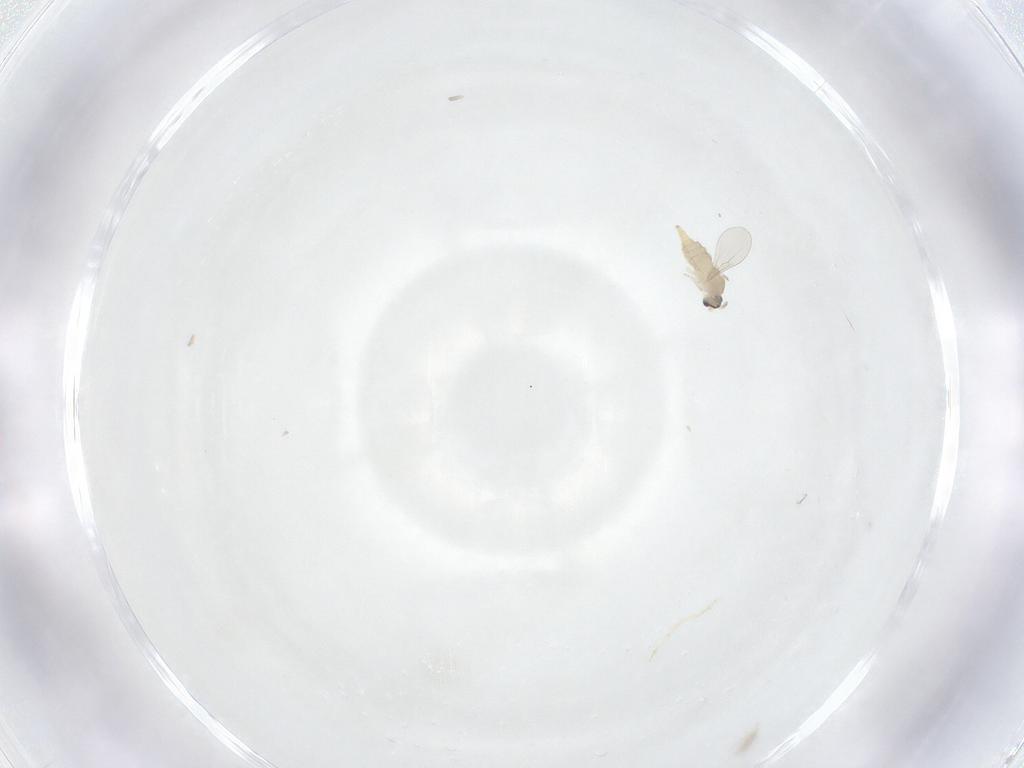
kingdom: Animalia
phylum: Arthropoda
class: Insecta
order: Diptera
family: Cecidomyiidae
